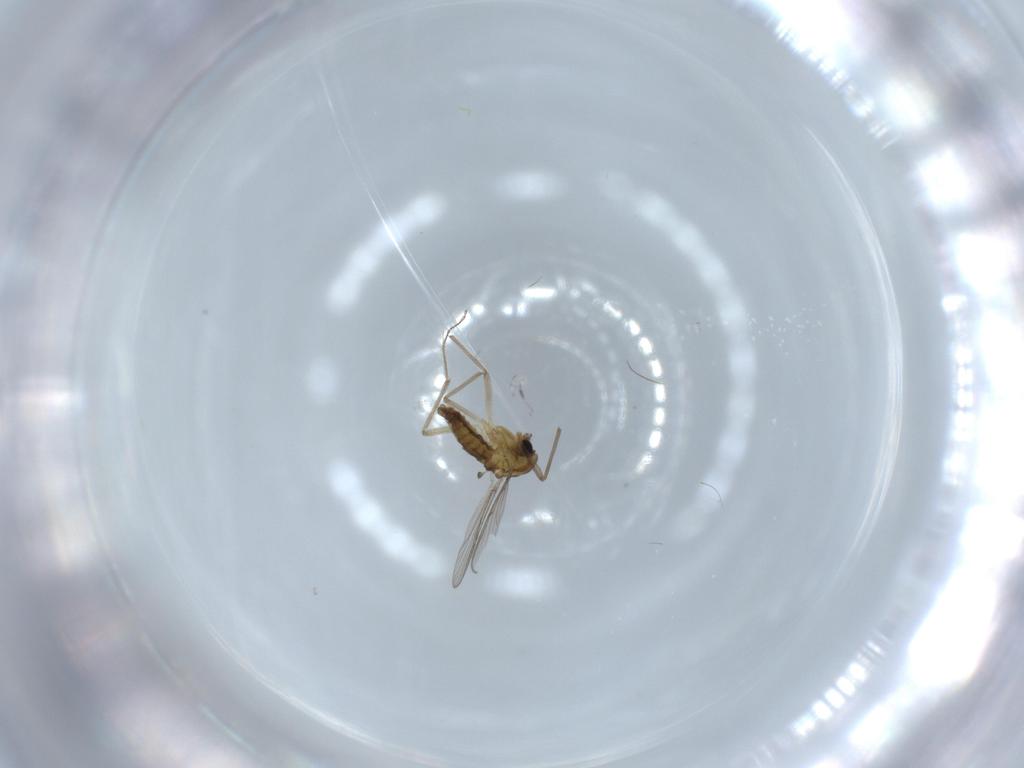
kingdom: Animalia
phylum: Arthropoda
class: Insecta
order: Diptera
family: Chironomidae
